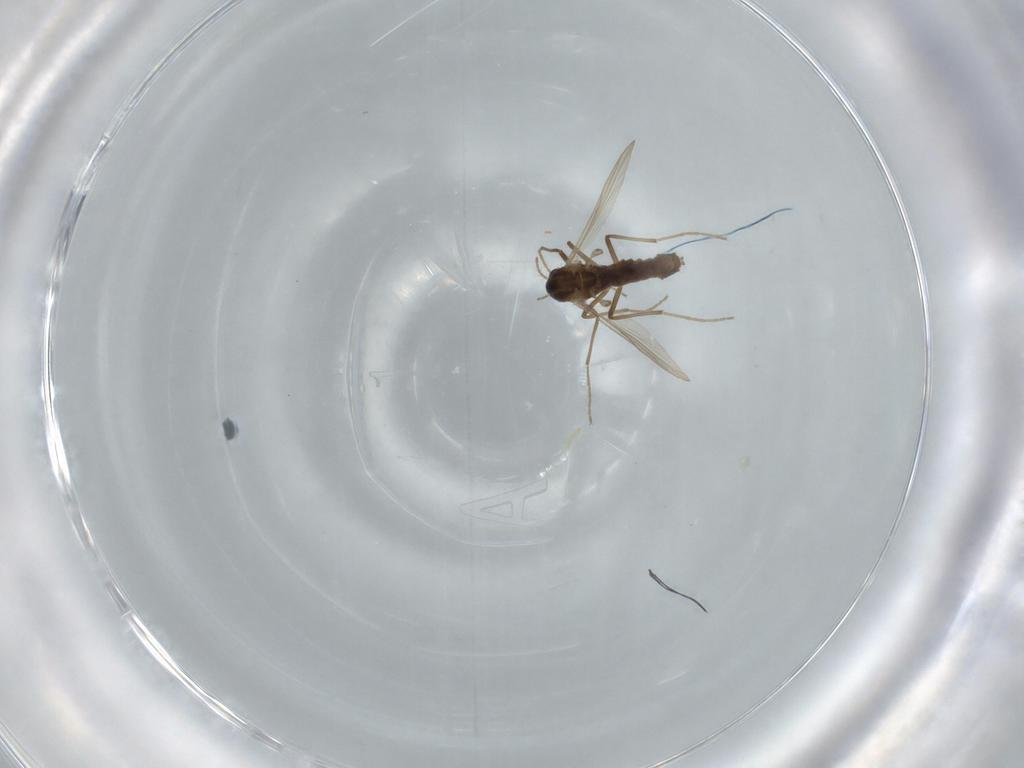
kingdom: Animalia
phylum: Arthropoda
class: Insecta
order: Diptera
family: Chironomidae
